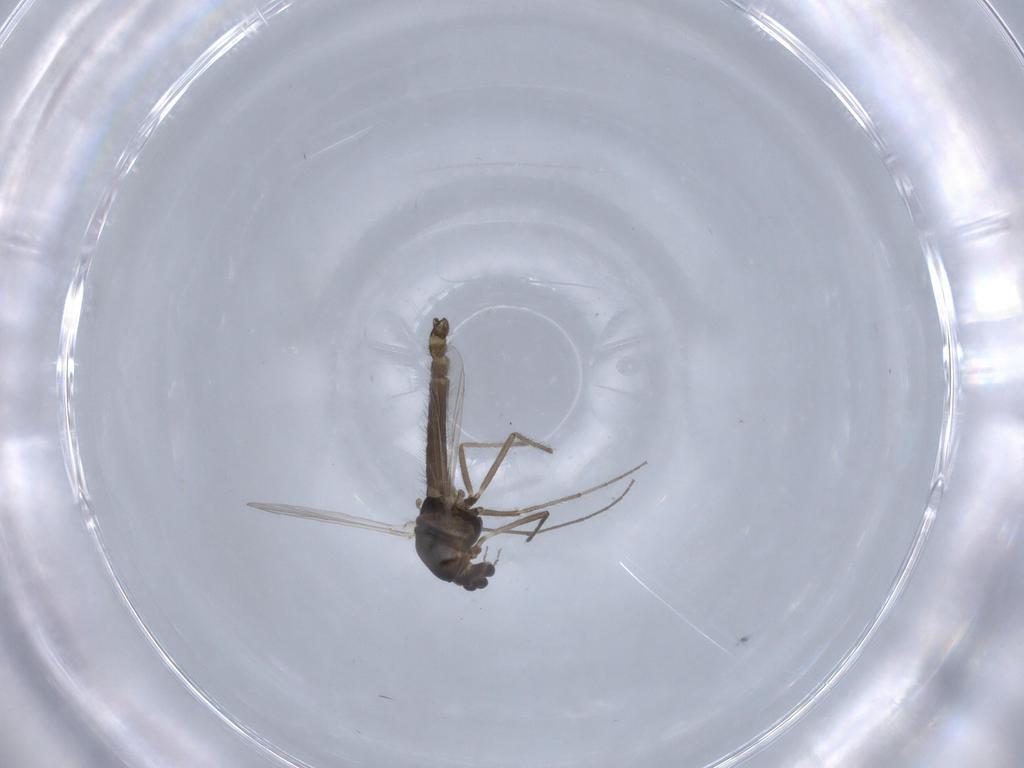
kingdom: Animalia
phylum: Arthropoda
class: Insecta
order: Diptera
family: Chironomidae
